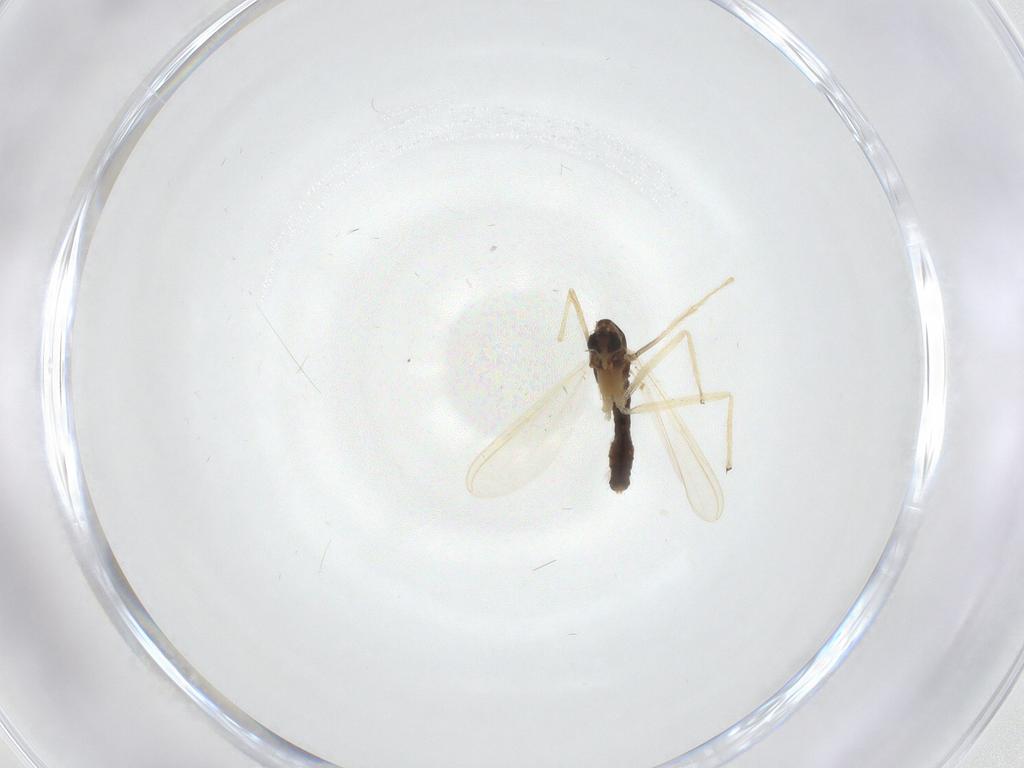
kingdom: Animalia
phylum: Arthropoda
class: Insecta
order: Diptera
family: Chironomidae
